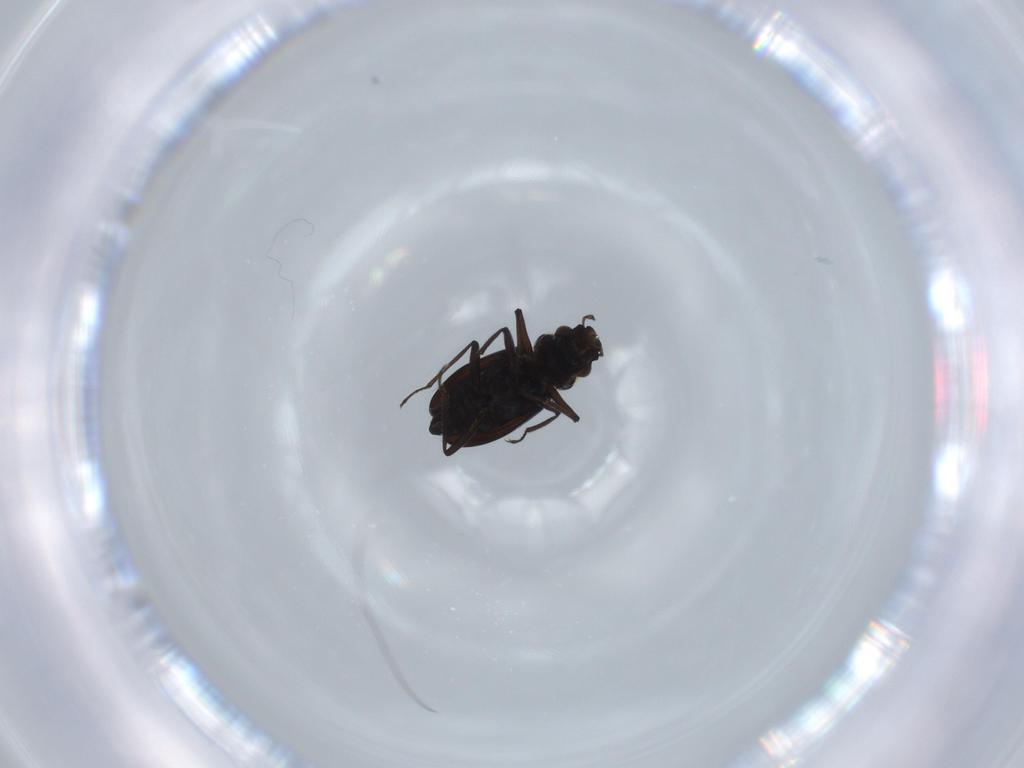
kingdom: Animalia
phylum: Arthropoda
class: Insecta
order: Coleoptera
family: Hydraenidae
